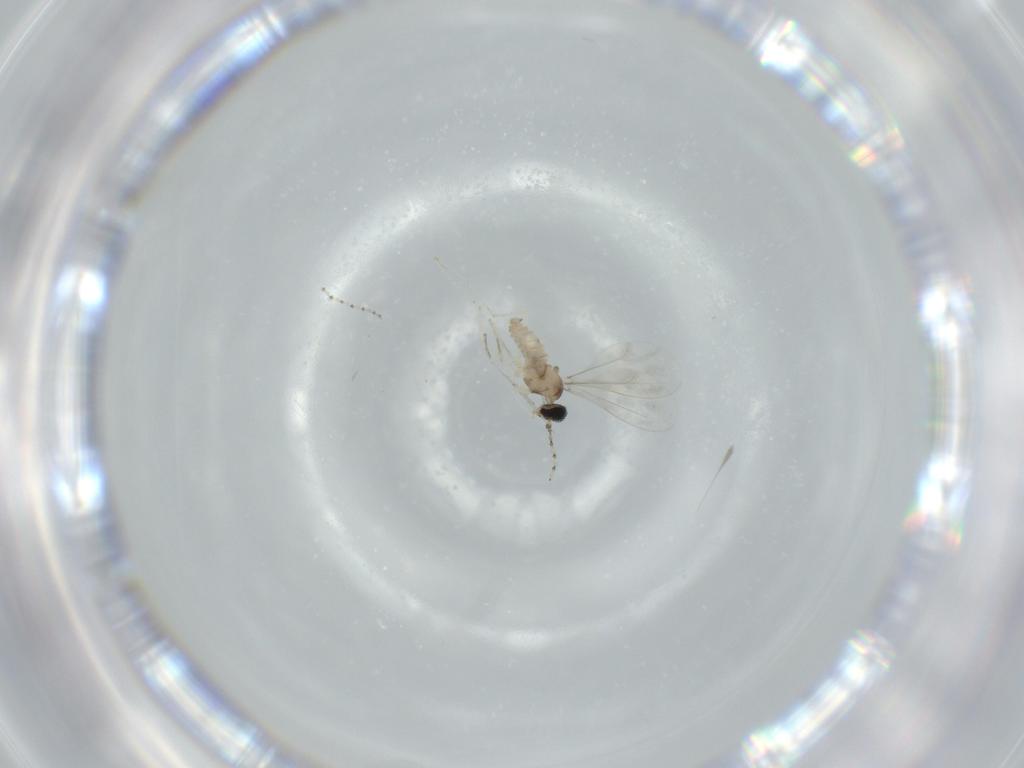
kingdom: Animalia
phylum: Arthropoda
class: Insecta
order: Diptera
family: Cecidomyiidae
